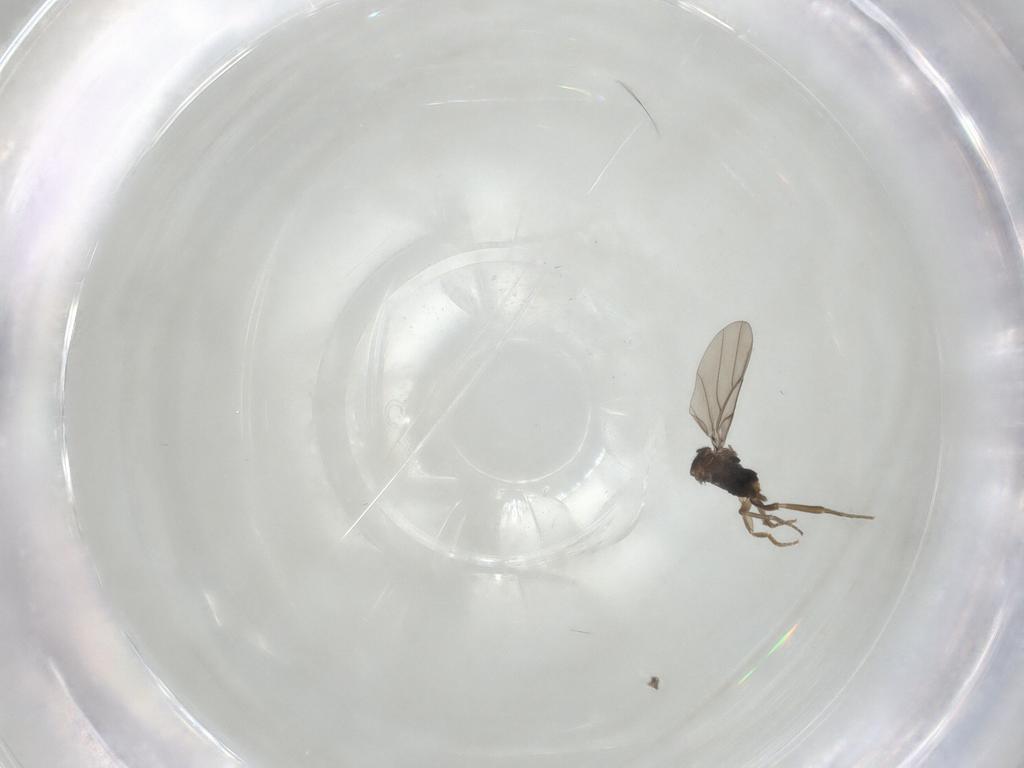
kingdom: Animalia
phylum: Arthropoda
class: Insecta
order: Diptera
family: Phoridae
